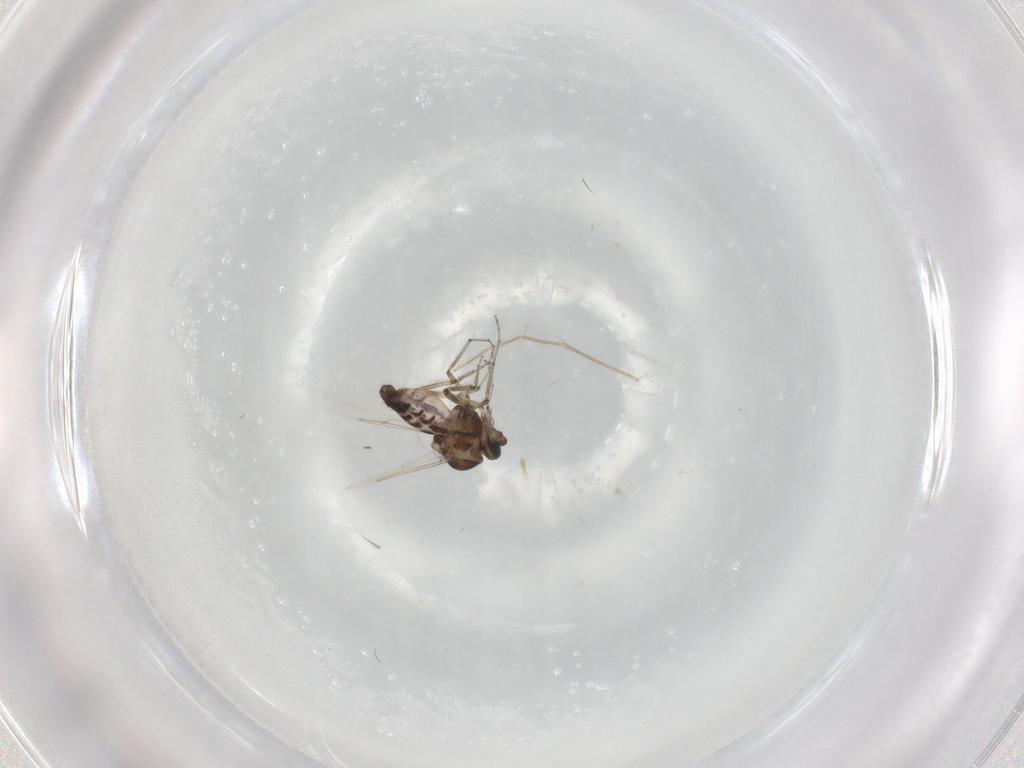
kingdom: Animalia
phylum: Arthropoda
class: Insecta
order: Diptera
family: Ceratopogonidae
